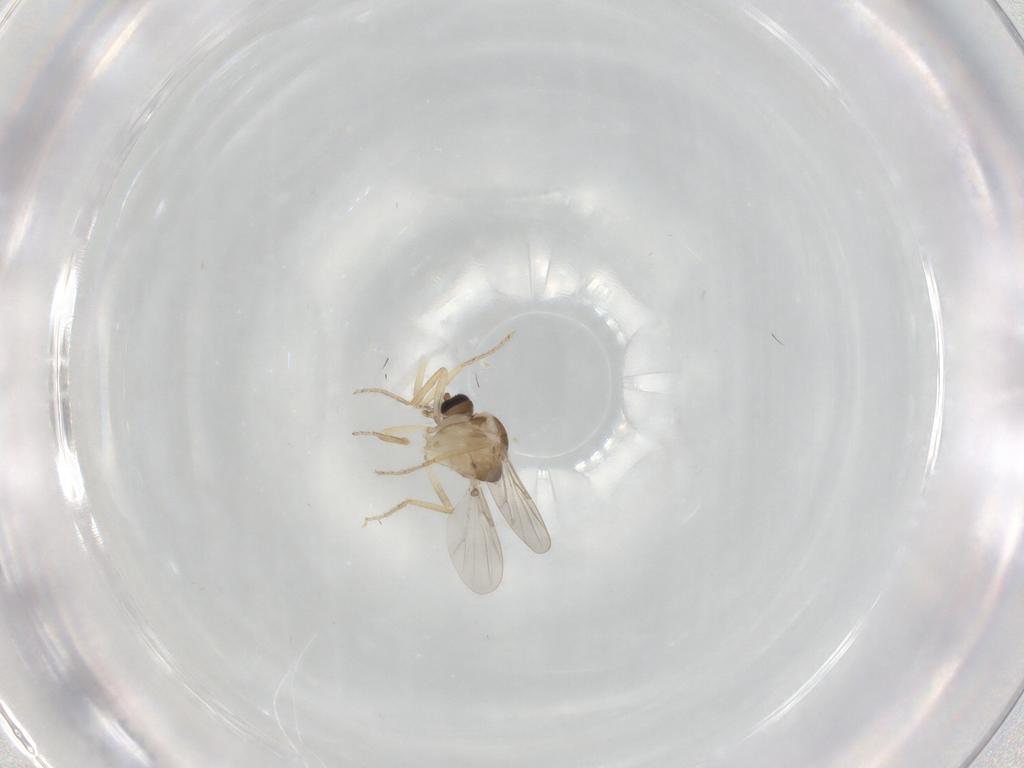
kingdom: Animalia
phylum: Arthropoda
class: Insecta
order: Diptera
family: Ceratopogonidae
